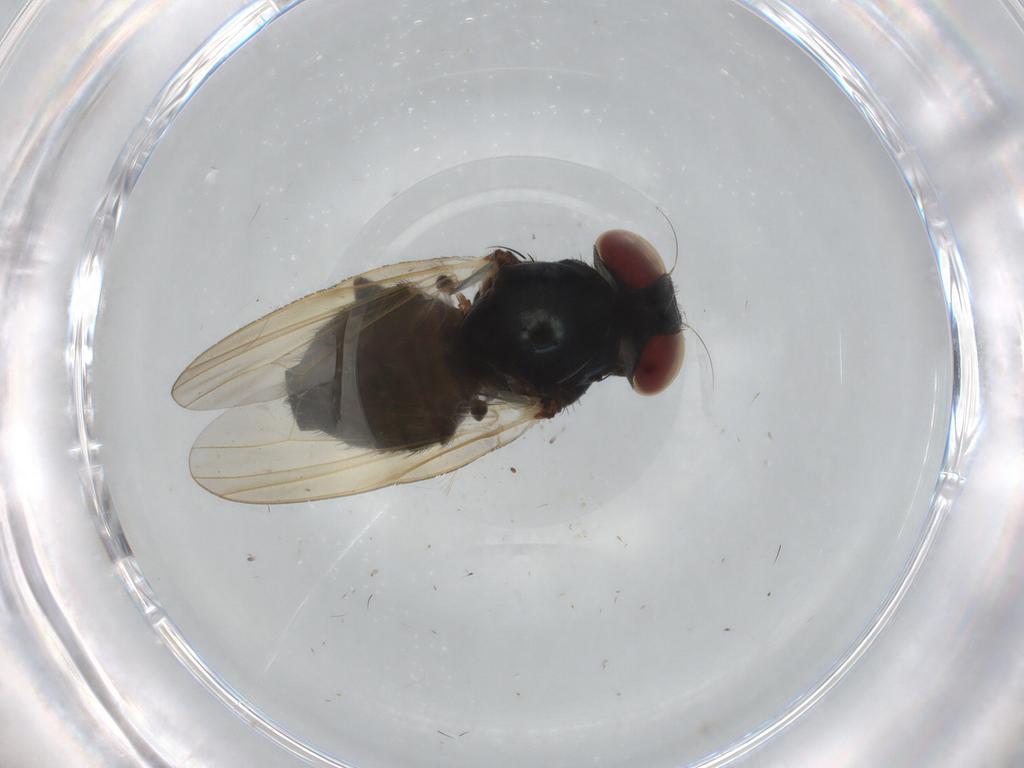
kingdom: Animalia
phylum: Arthropoda
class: Insecta
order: Diptera
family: Lonchaeidae
